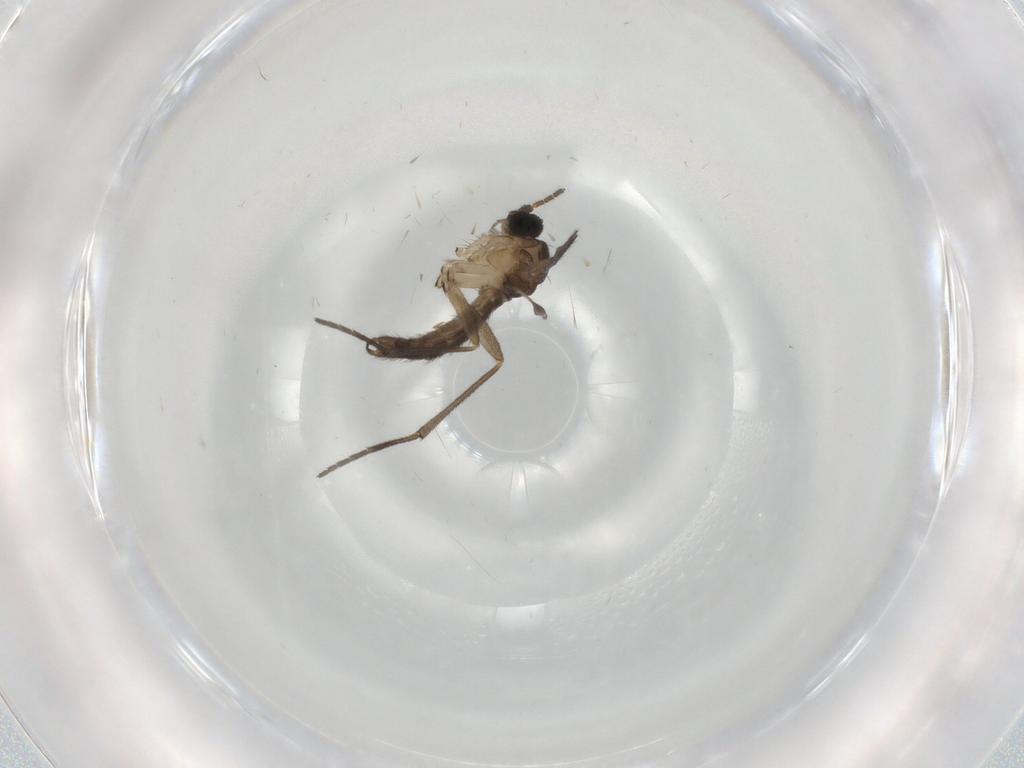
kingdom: Animalia
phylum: Arthropoda
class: Insecta
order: Diptera
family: Sciaridae
